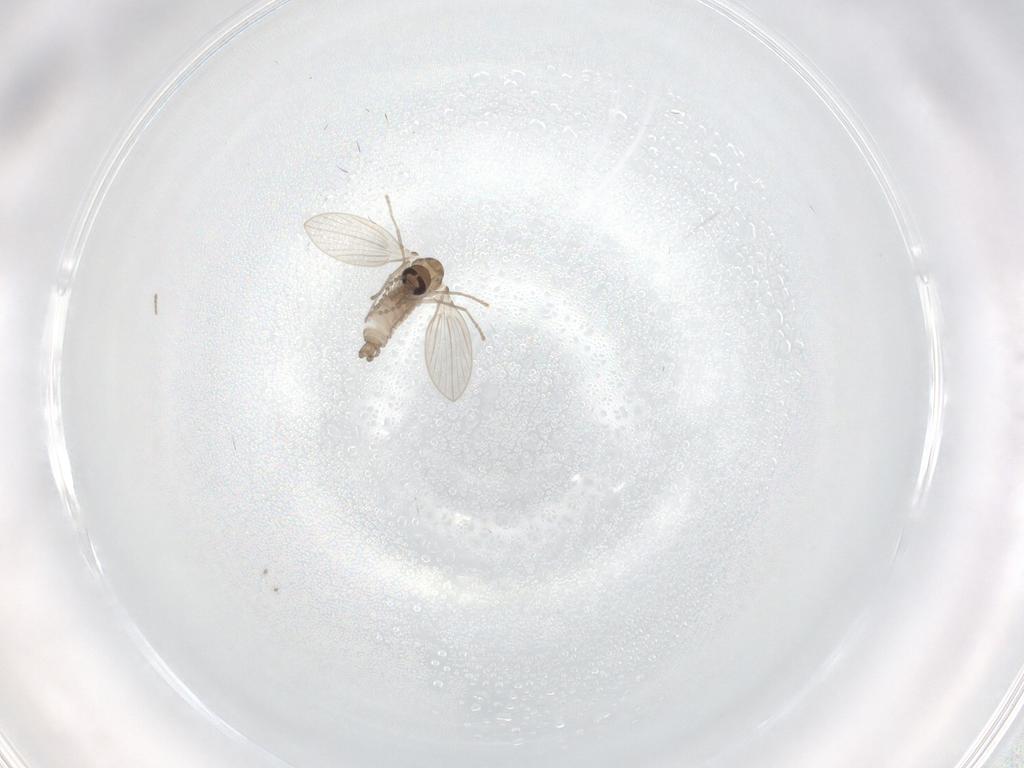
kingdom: Animalia
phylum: Arthropoda
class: Insecta
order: Diptera
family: Psychodidae
